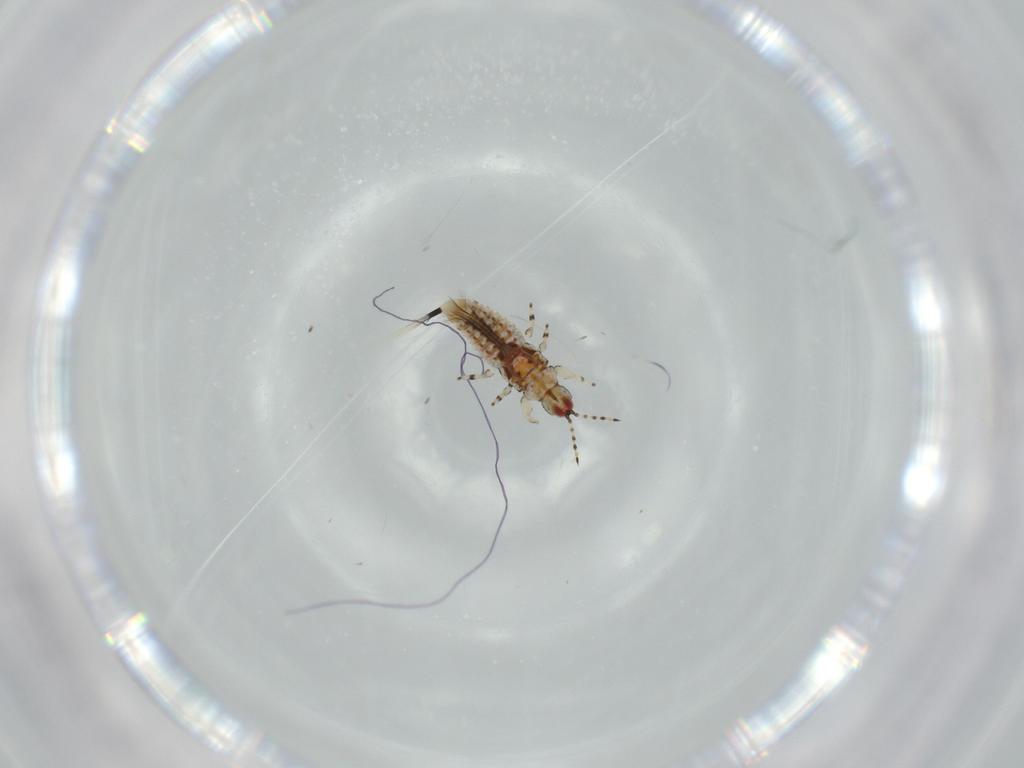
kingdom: Animalia
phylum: Arthropoda
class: Insecta
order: Thysanoptera
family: Phlaeothripidae
